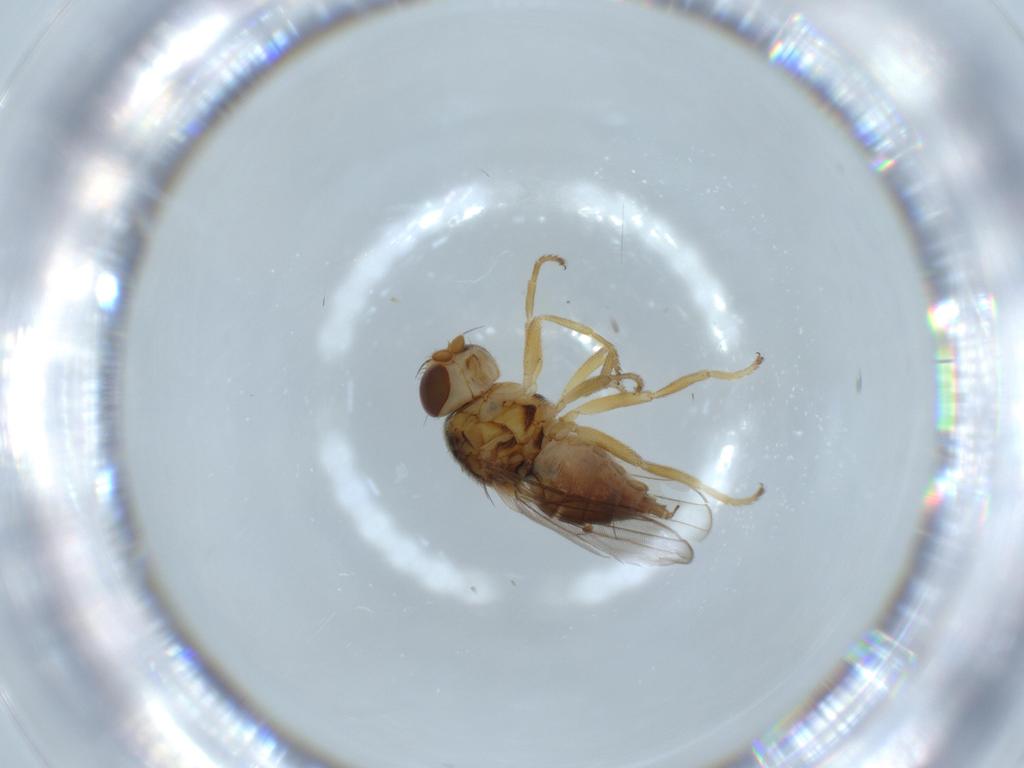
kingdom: Animalia
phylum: Arthropoda
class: Insecta
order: Diptera
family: Chloropidae
